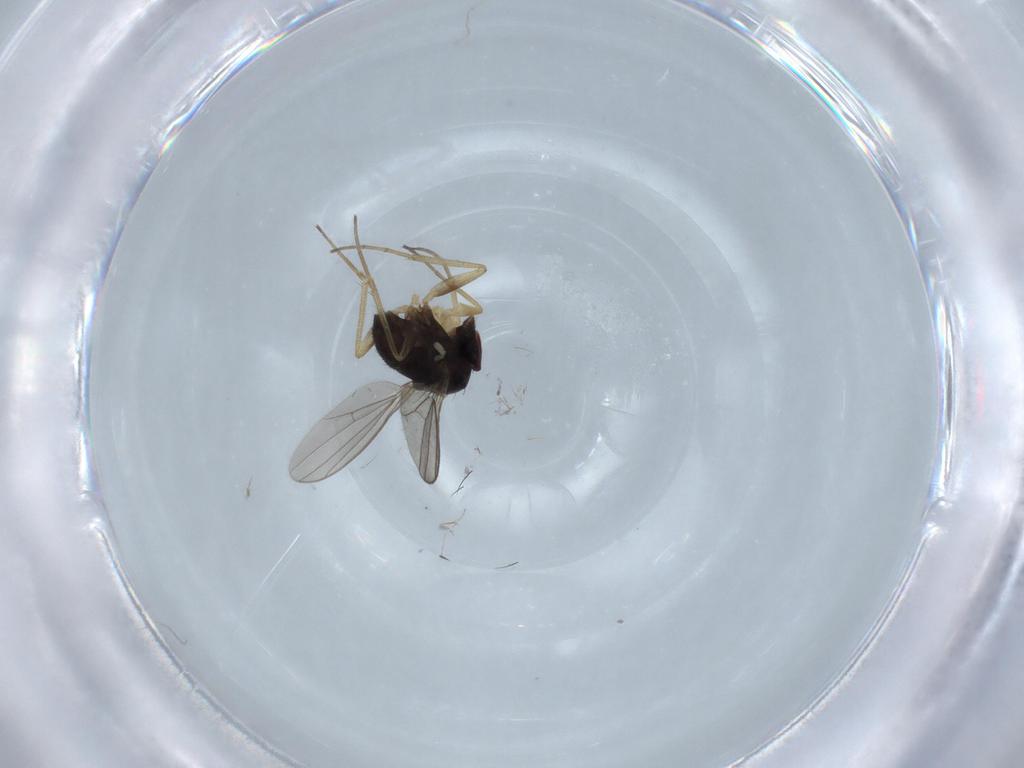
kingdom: Animalia
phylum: Arthropoda
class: Insecta
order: Diptera
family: Dolichopodidae
